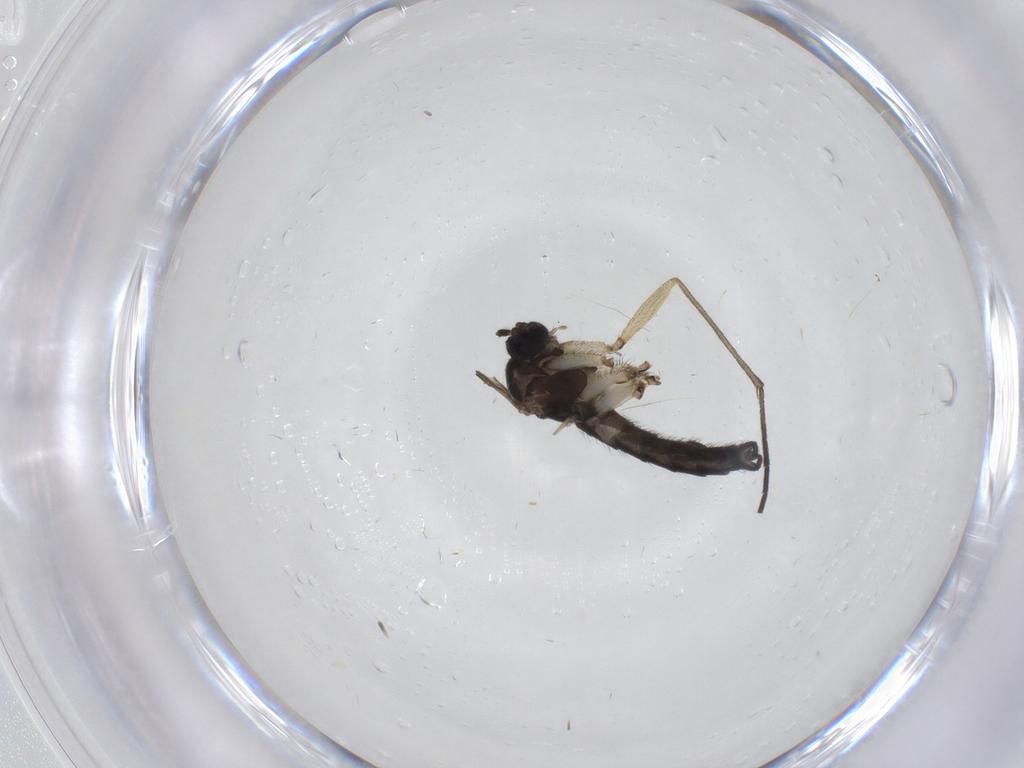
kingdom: Animalia
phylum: Arthropoda
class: Insecta
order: Diptera
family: Sciaridae
